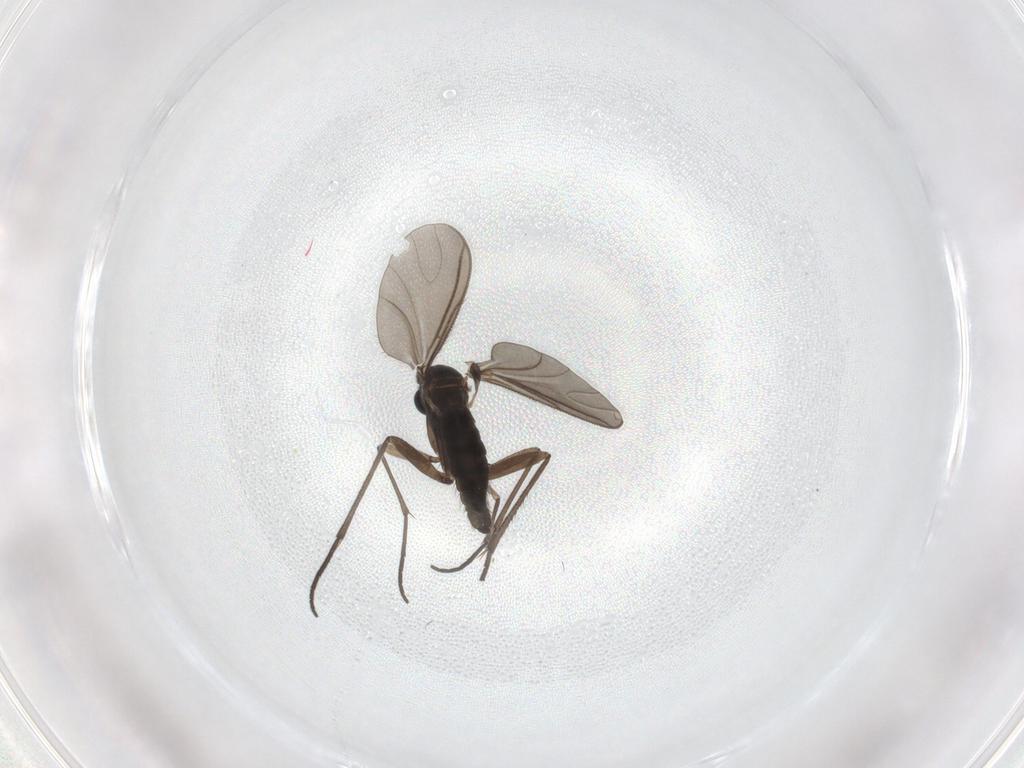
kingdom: Animalia
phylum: Arthropoda
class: Insecta
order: Diptera
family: Sciaridae
